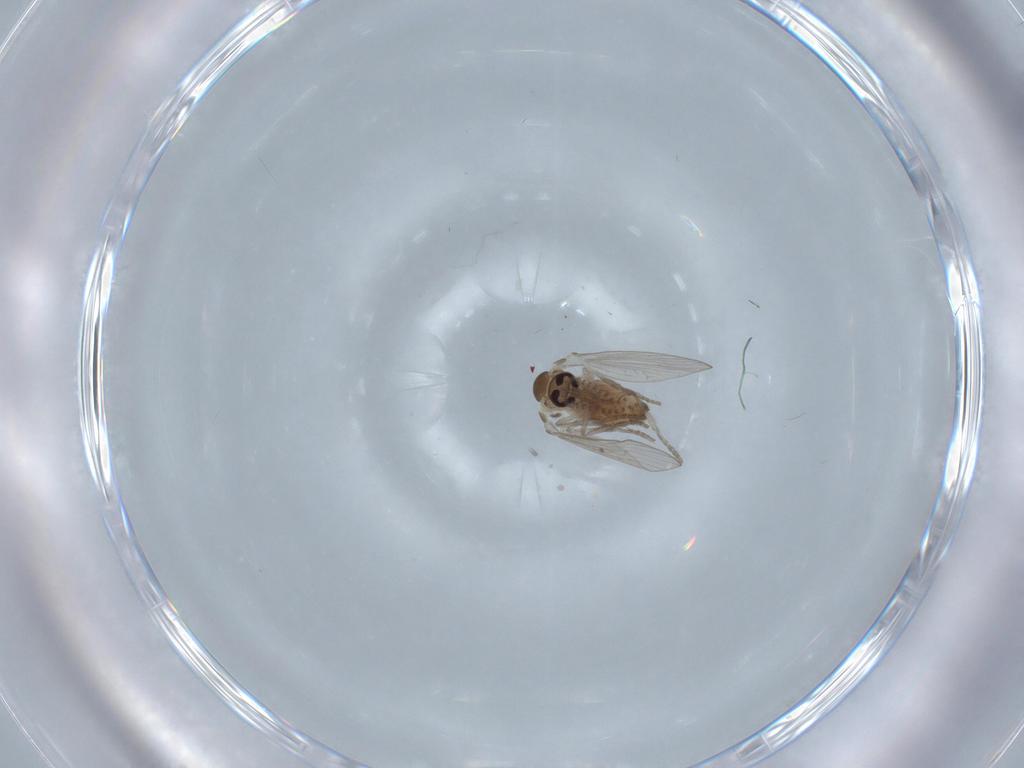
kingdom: Animalia
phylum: Arthropoda
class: Insecta
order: Diptera
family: Psychodidae
